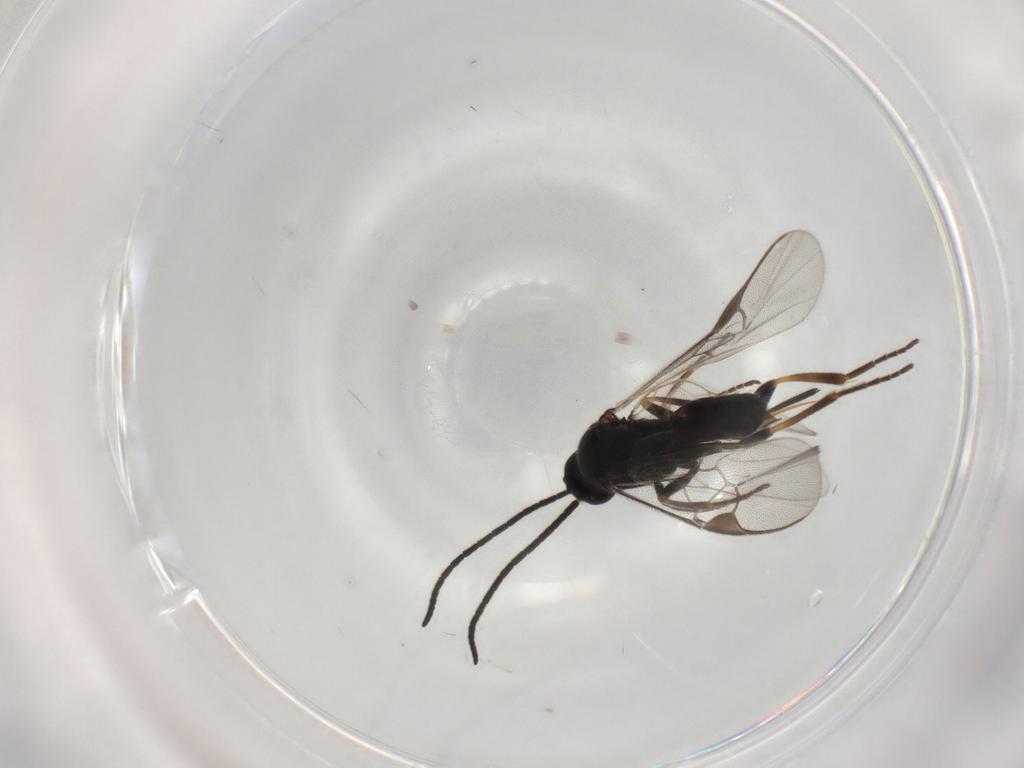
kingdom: Animalia
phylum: Arthropoda
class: Insecta
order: Hymenoptera
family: Braconidae
